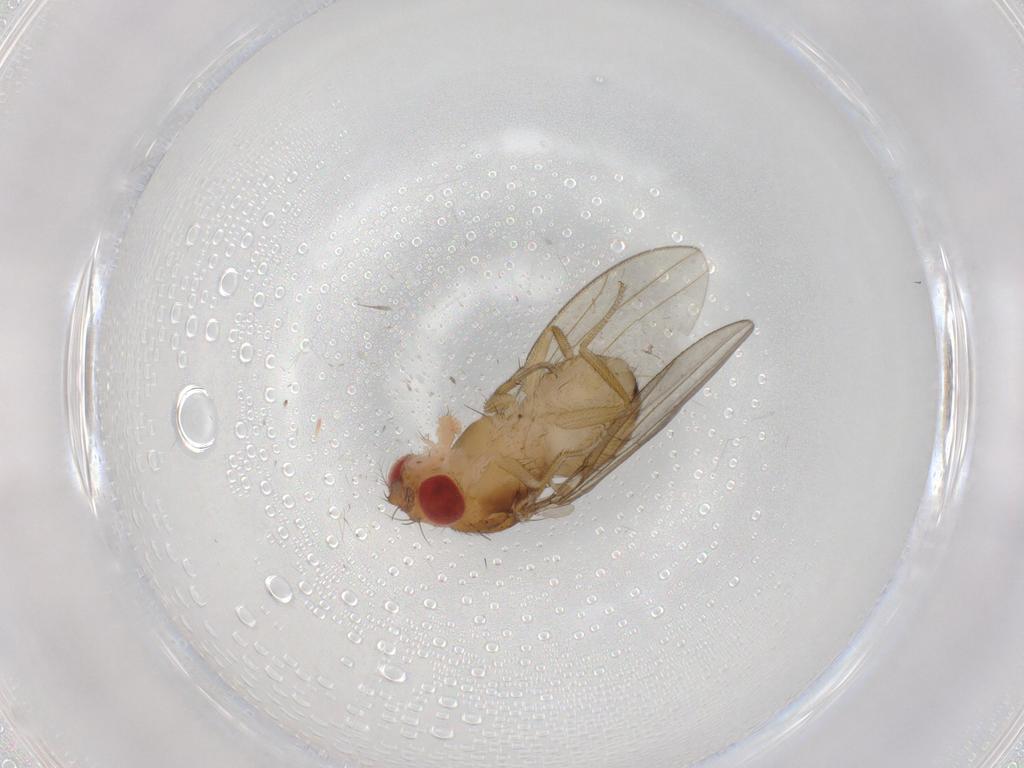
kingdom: Animalia
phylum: Arthropoda
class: Insecta
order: Diptera
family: Drosophilidae
